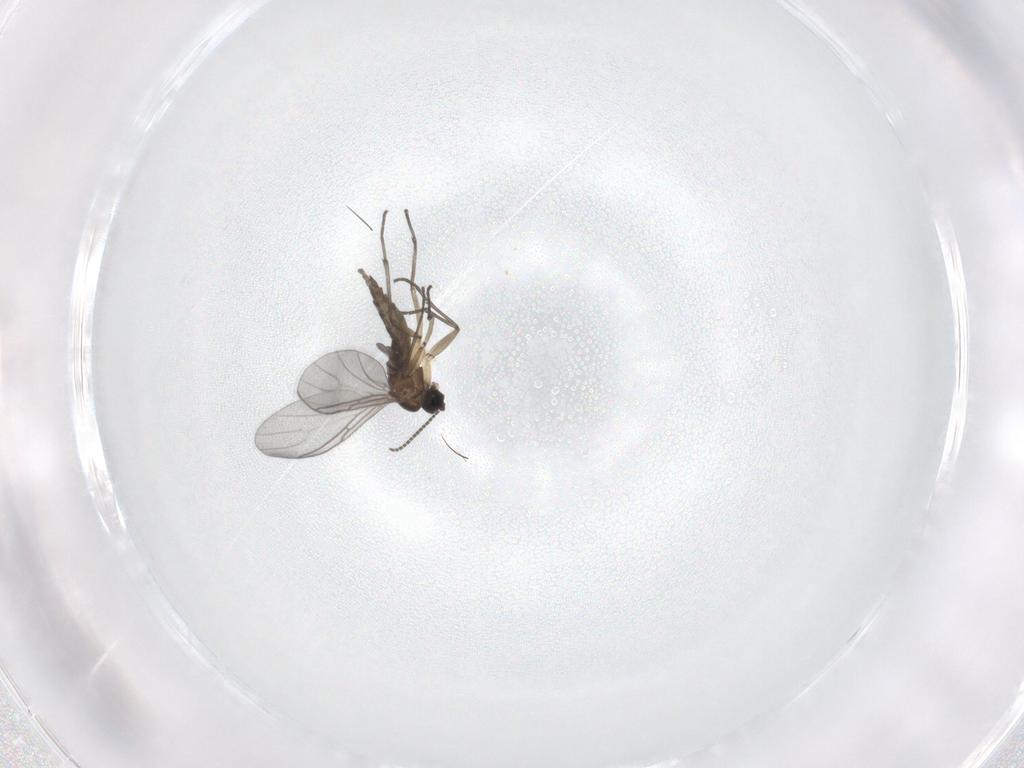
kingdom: Animalia
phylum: Arthropoda
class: Insecta
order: Diptera
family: Sciaridae
